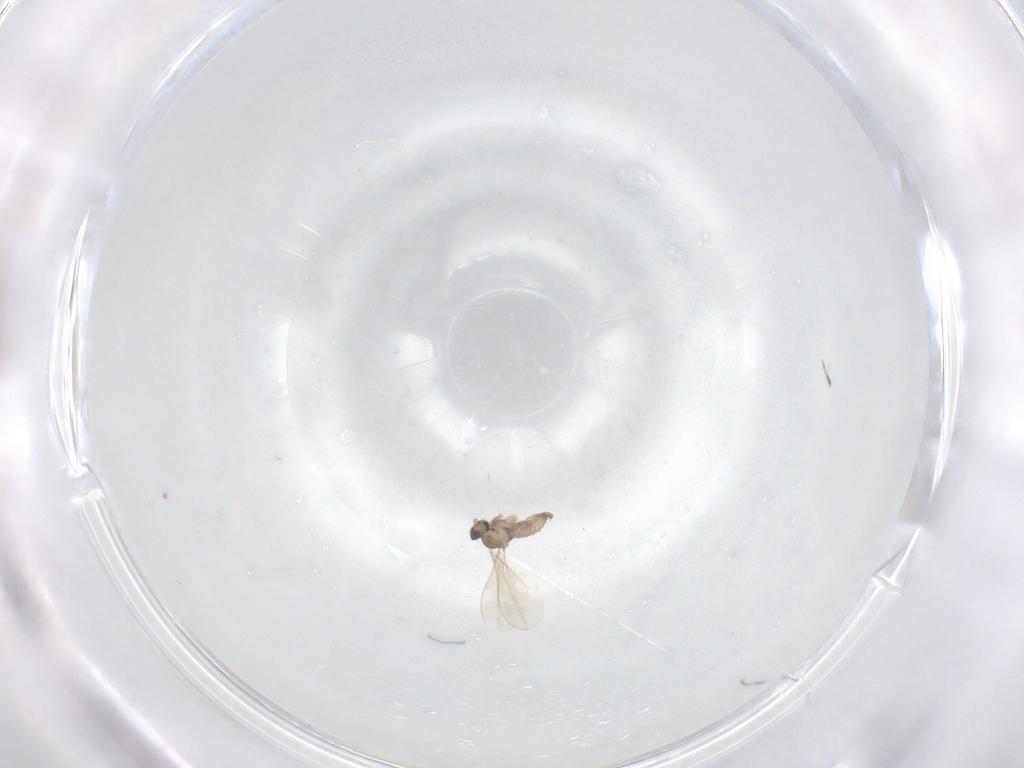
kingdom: Animalia
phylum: Arthropoda
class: Insecta
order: Diptera
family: Cecidomyiidae
